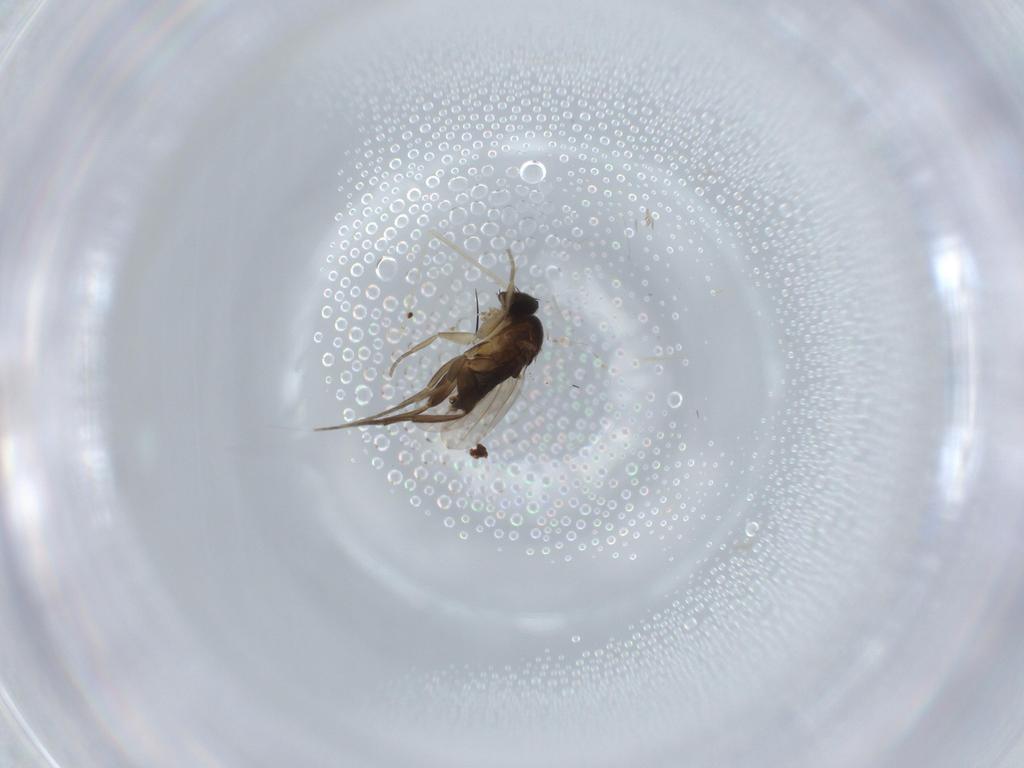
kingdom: Animalia
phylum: Arthropoda
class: Insecta
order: Diptera
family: Phoridae
